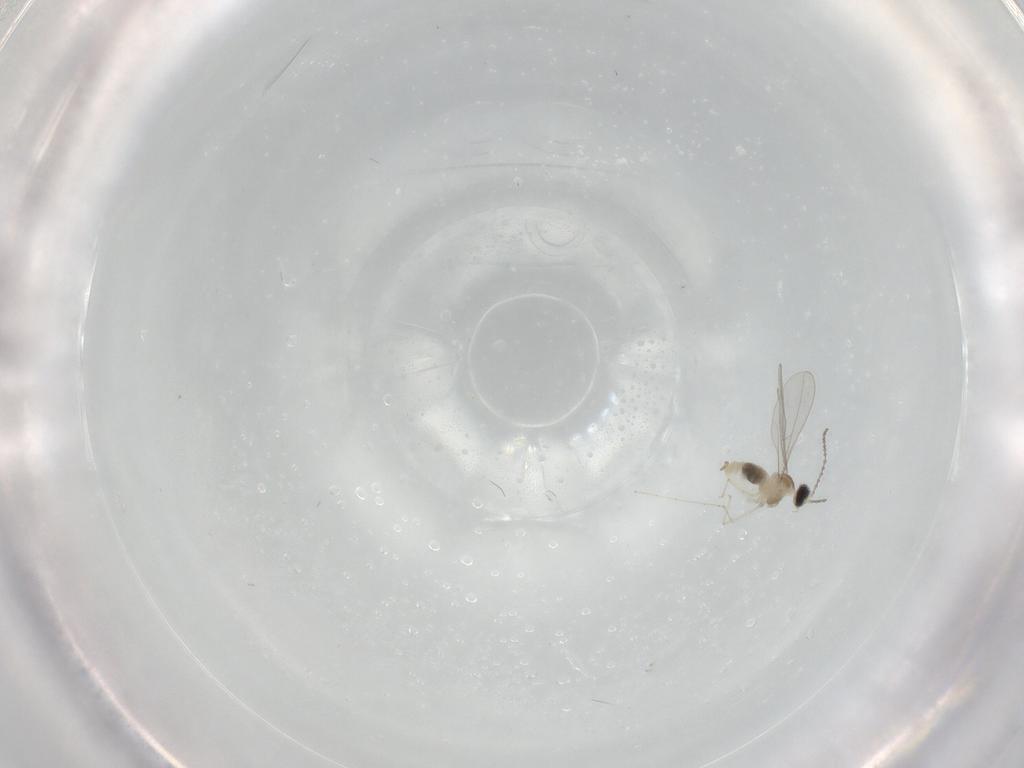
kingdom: Animalia
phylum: Arthropoda
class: Insecta
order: Diptera
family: Cecidomyiidae
